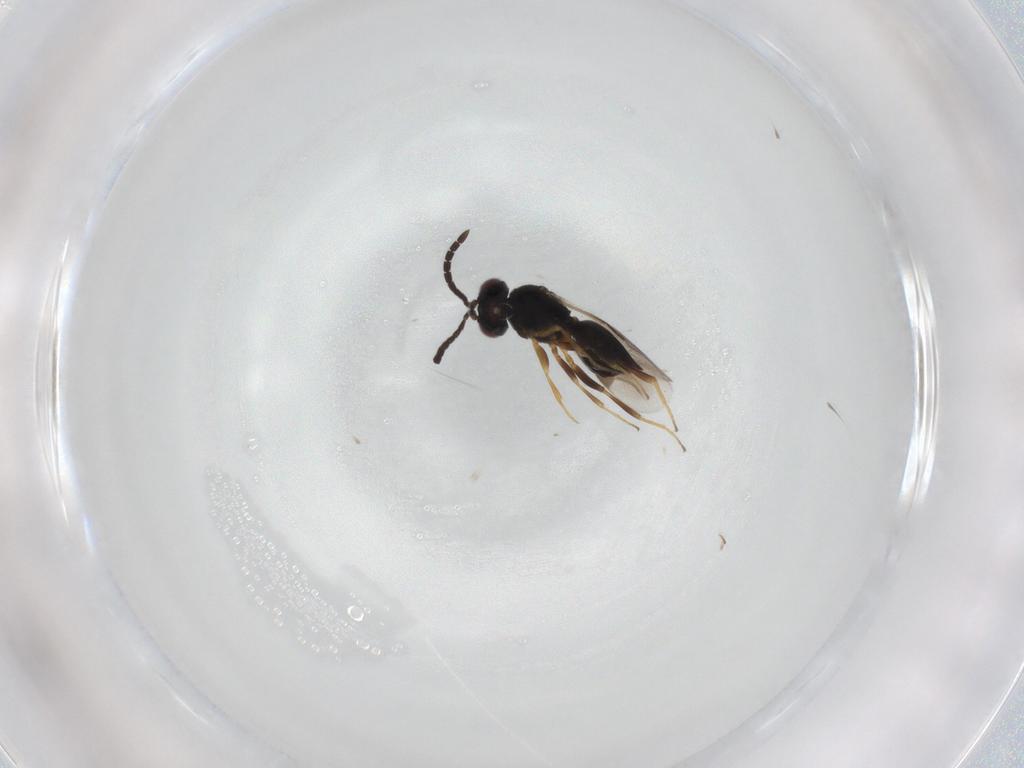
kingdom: Animalia
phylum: Arthropoda
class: Insecta
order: Hymenoptera
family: Megaspilidae
